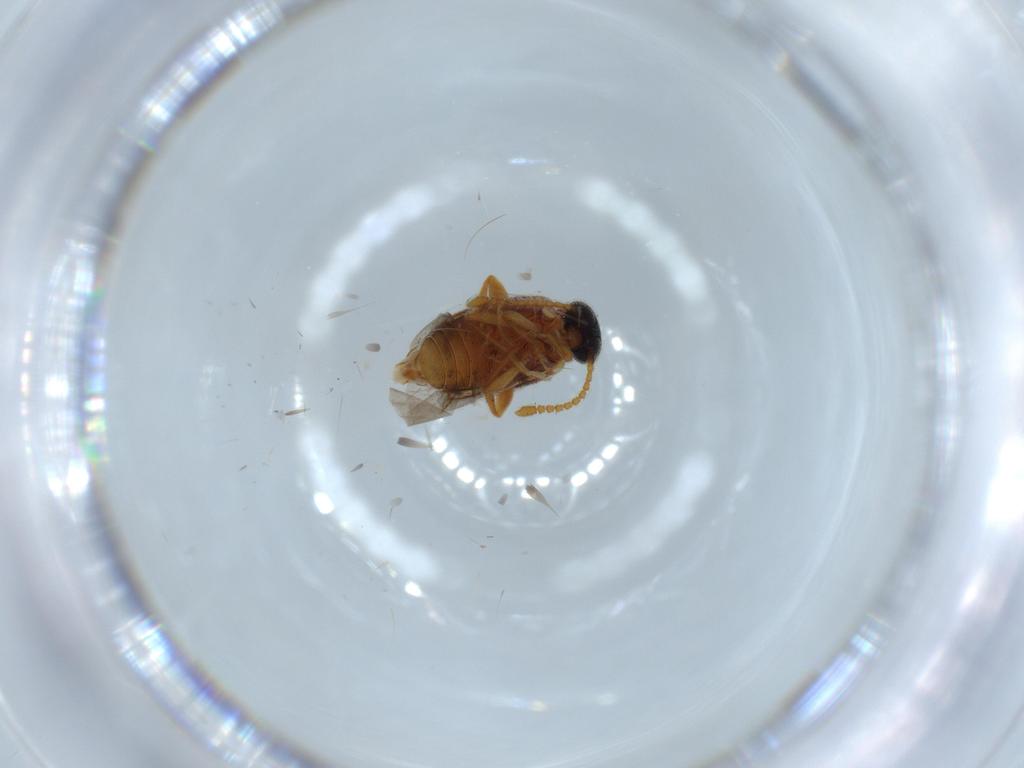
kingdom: Animalia
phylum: Arthropoda
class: Insecta
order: Coleoptera
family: Aderidae
